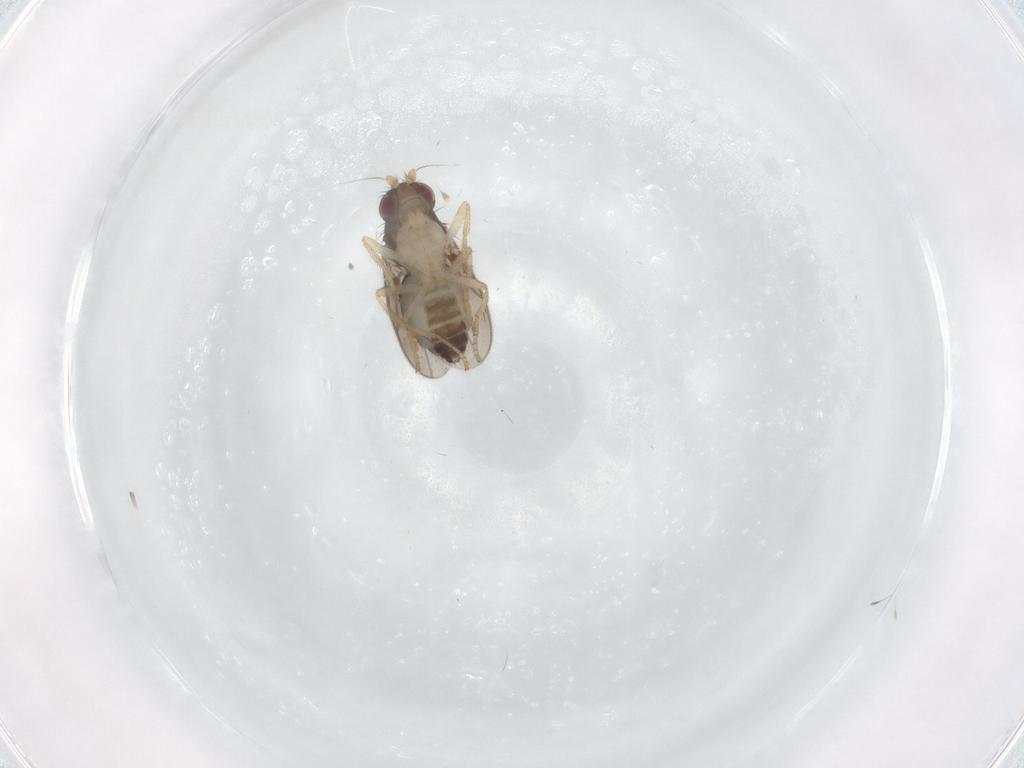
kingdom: Animalia
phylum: Arthropoda
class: Insecta
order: Diptera
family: Sphaeroceridae
